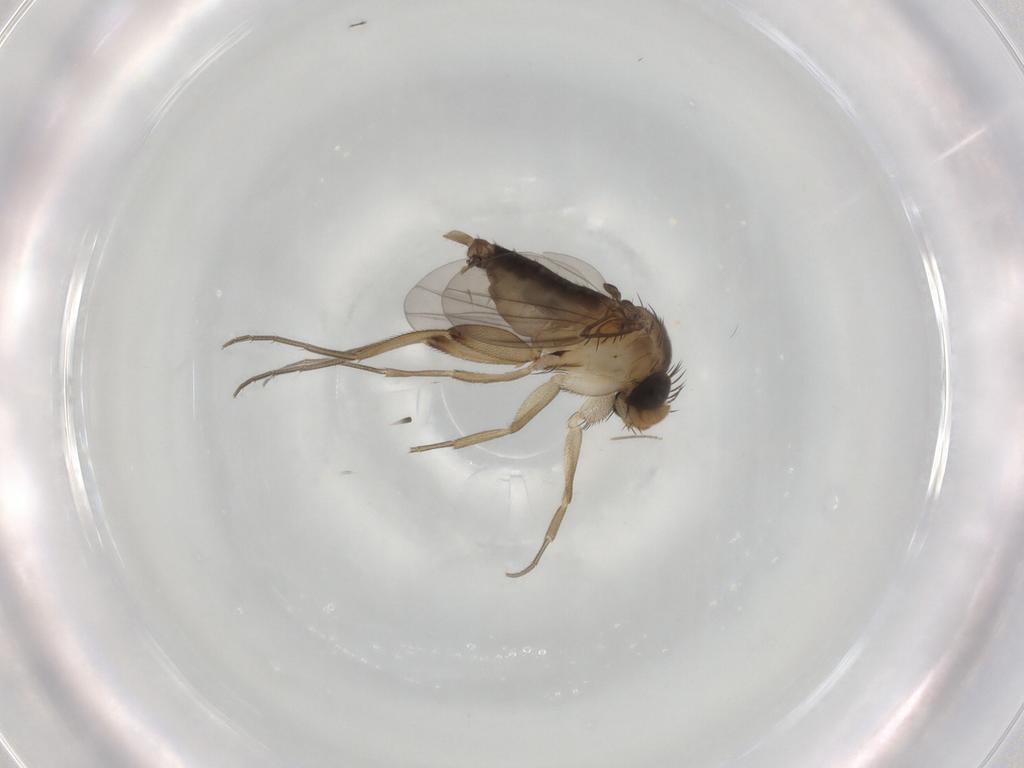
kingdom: Animalia
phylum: Arthropoda
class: Insecta
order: Diptera
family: Phoridae
